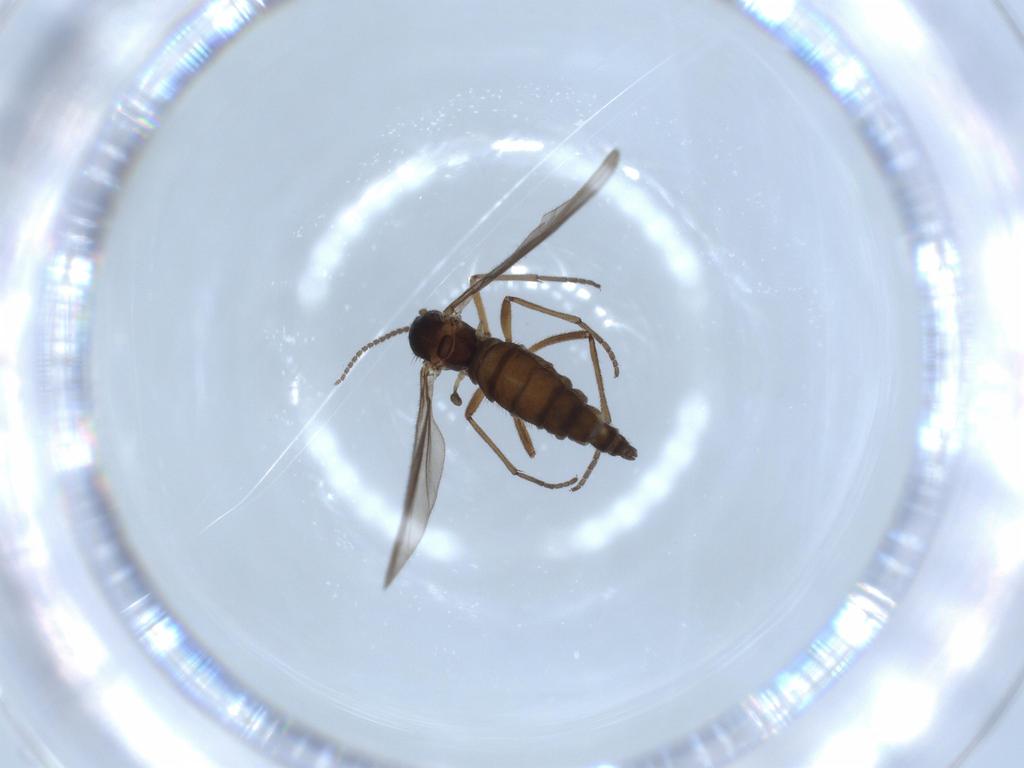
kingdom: Animalia
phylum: Arthropoda
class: Insecta
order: Diptera
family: Sciaridae
